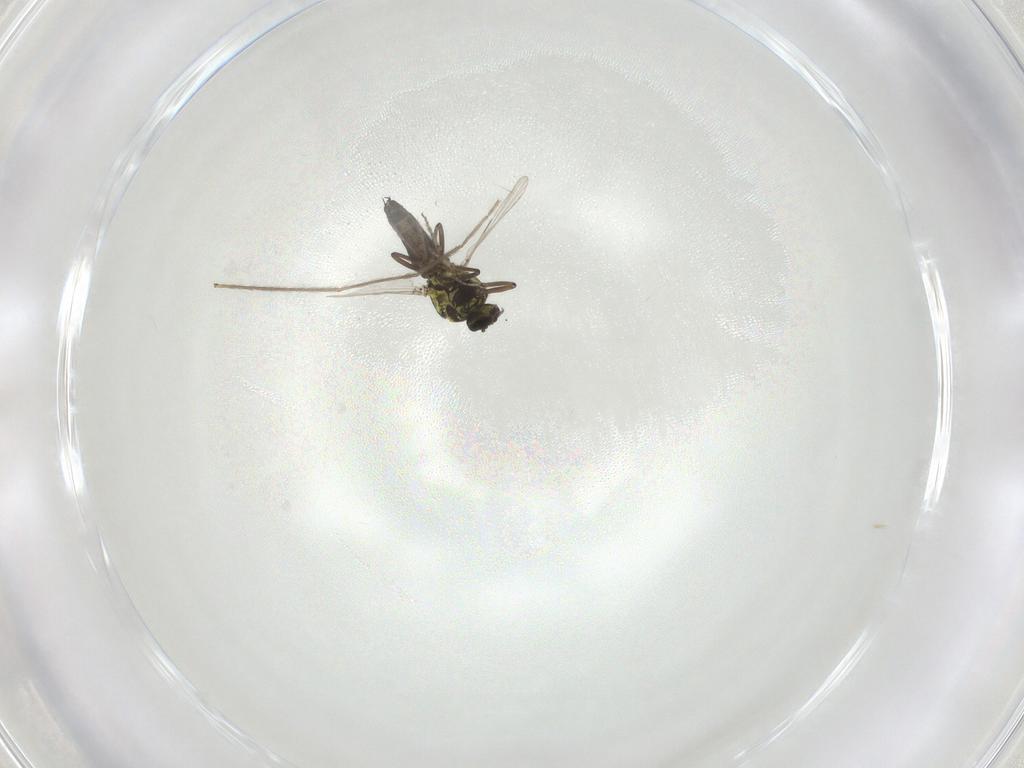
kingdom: Animalia
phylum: Arthropoda
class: Insecta
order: Diptera
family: Ceratopogonidae
